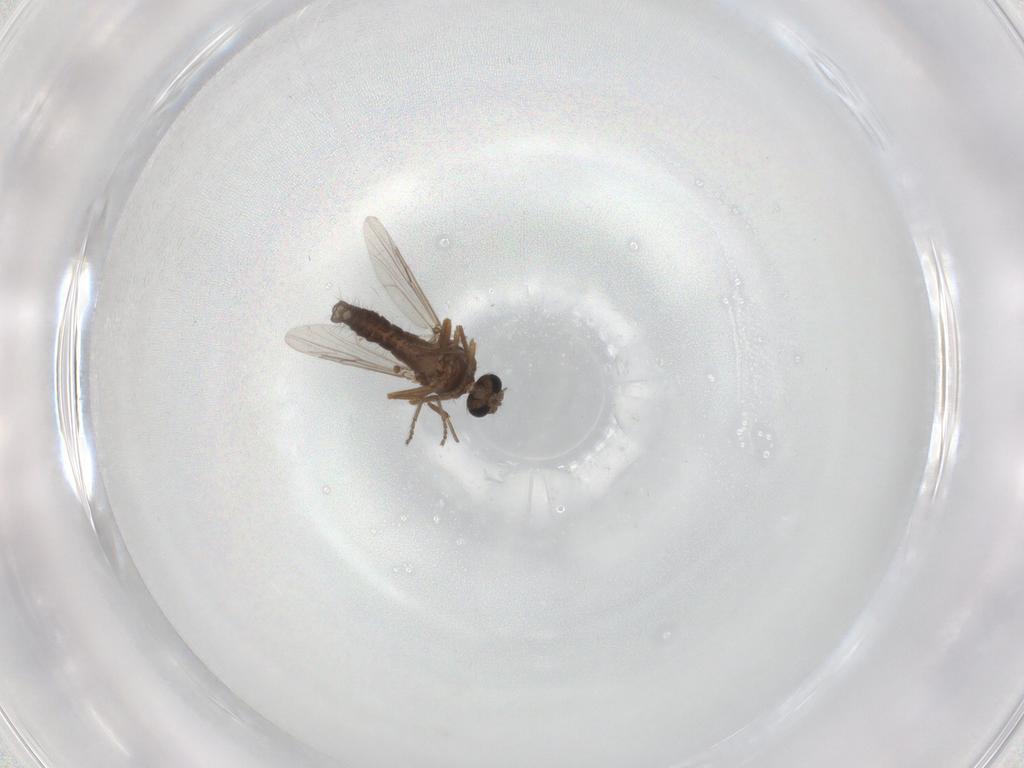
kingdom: Animalia
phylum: Arthropoda
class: Insecta
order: Diptera
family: Ceratopogonidae
